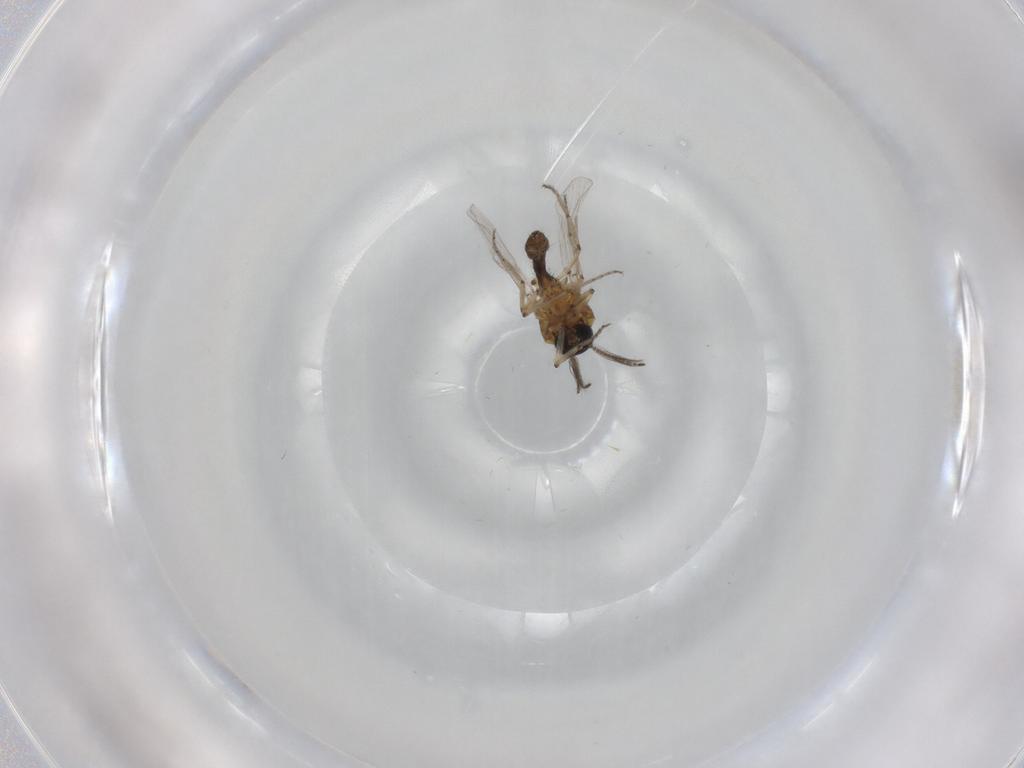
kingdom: Animalia
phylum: Arthropoda
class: Insecta
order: Diptera
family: Ceratopogonidae
